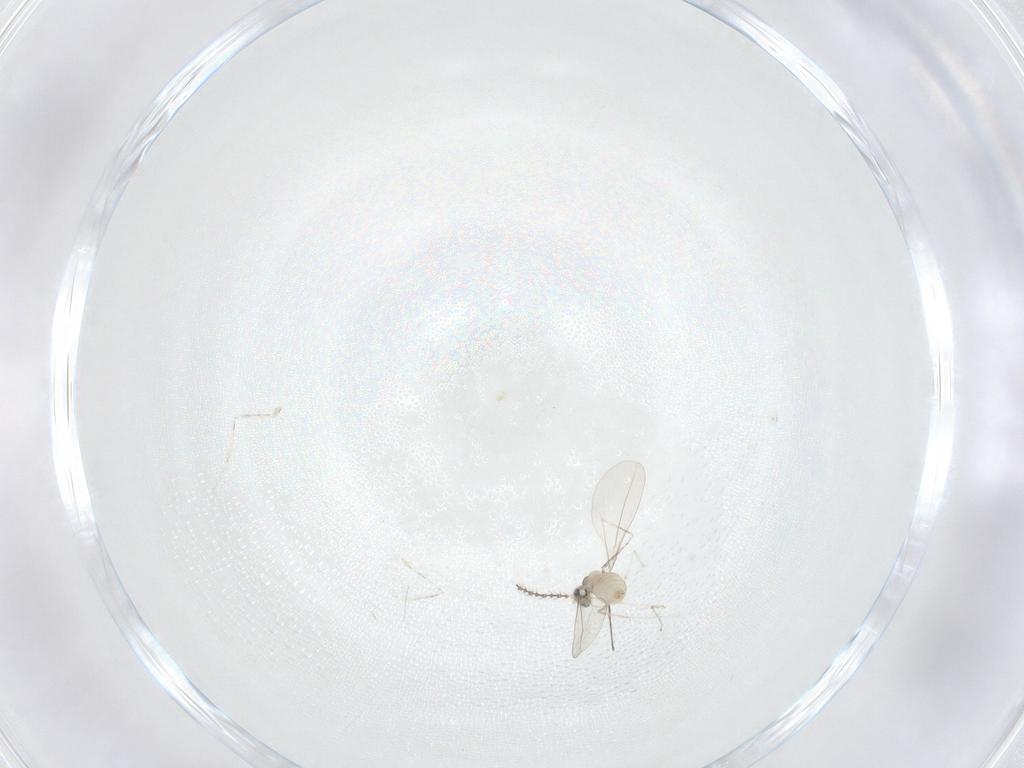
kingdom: Animalia
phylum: Arthropoda
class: Insecta
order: Diptera
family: Cecidomyiidae
